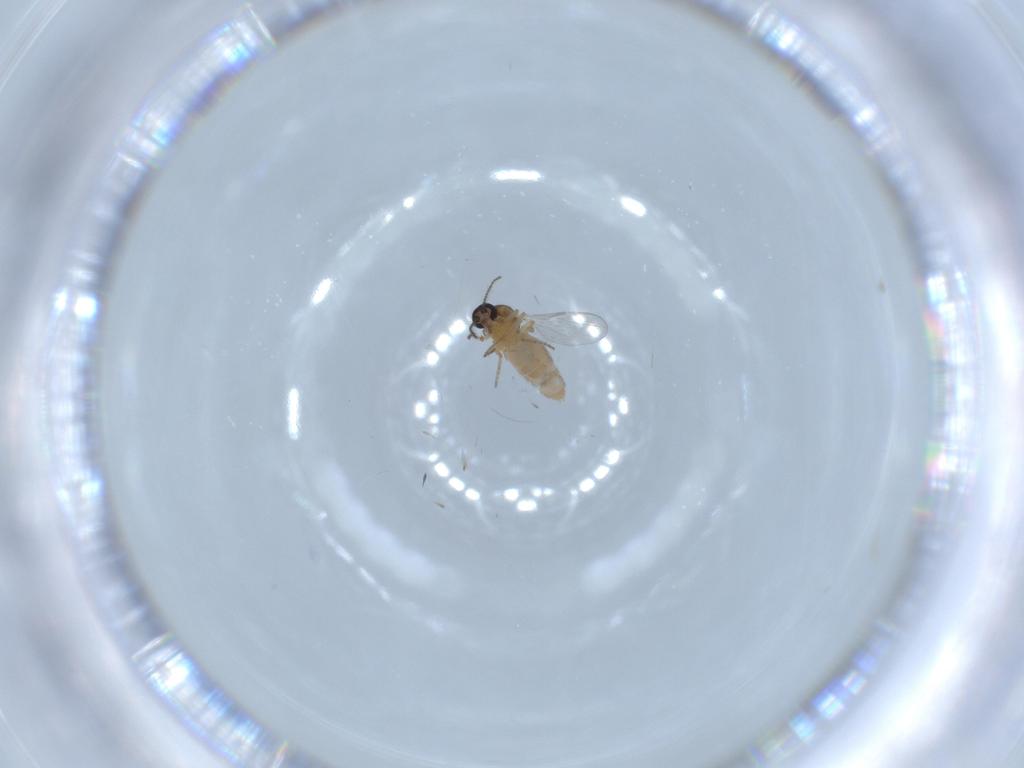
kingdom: Animalia
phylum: Arthropoda
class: Insecta
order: Diptera
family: Ceratopogonidae
